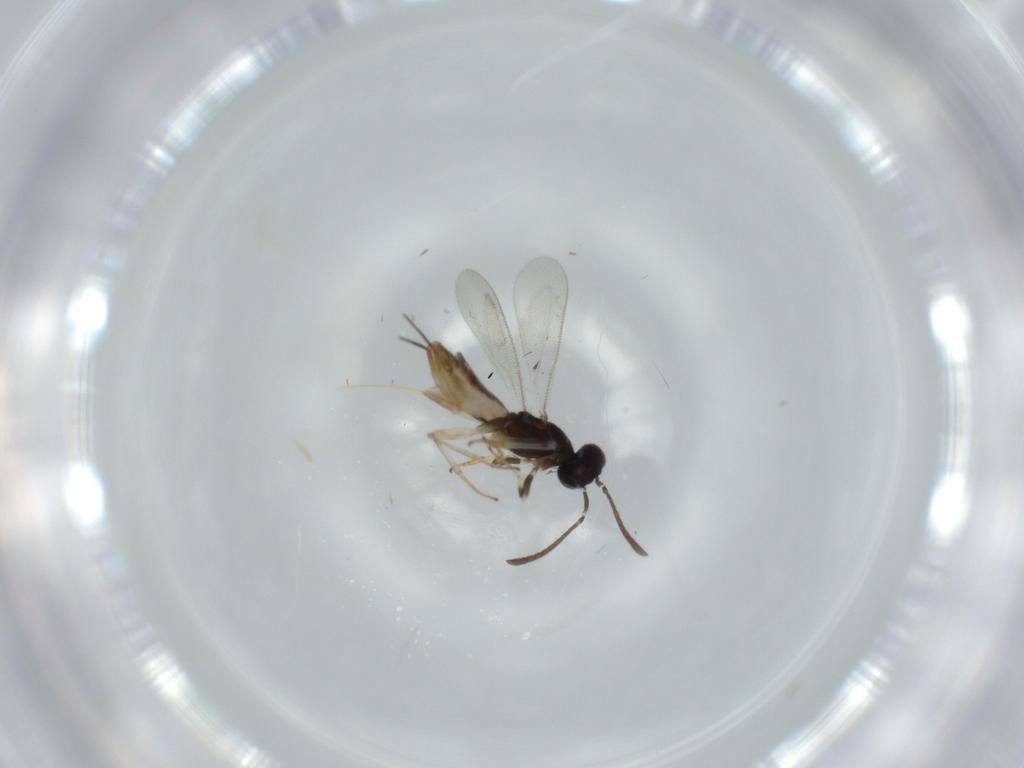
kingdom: Animalia
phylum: Arthropoda
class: Insecta
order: Hymenoptera
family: Eupelmidae
